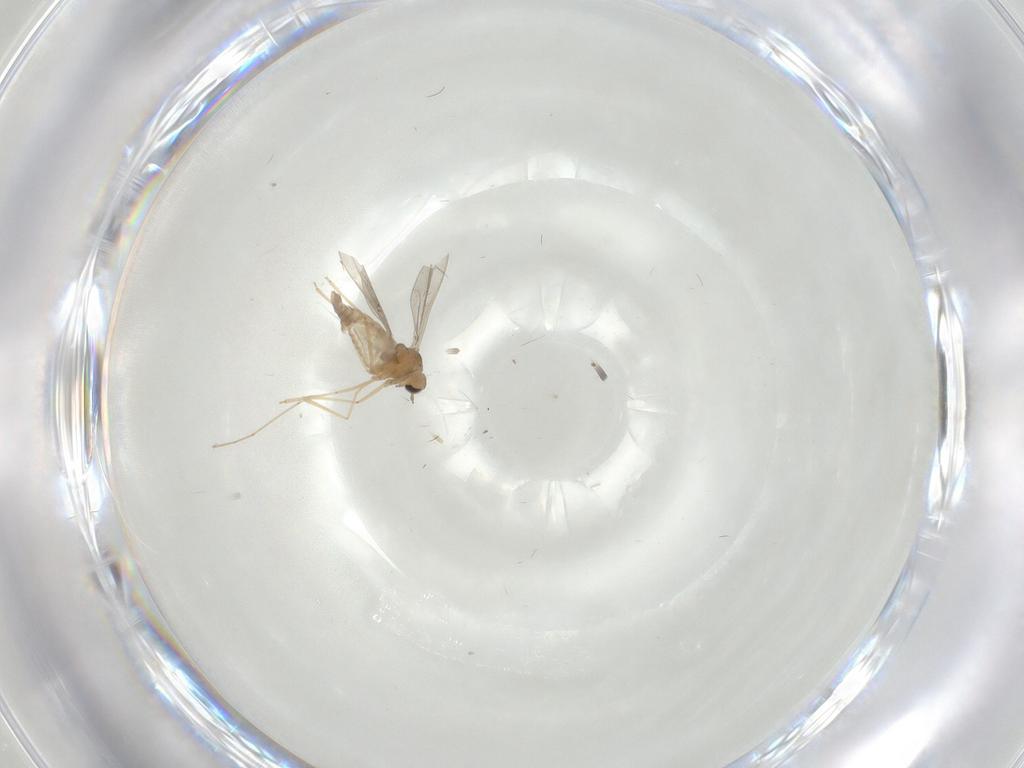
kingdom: Animalia
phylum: Arthropoda
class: Insecta
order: Diptera
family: Cecidomyiidae
